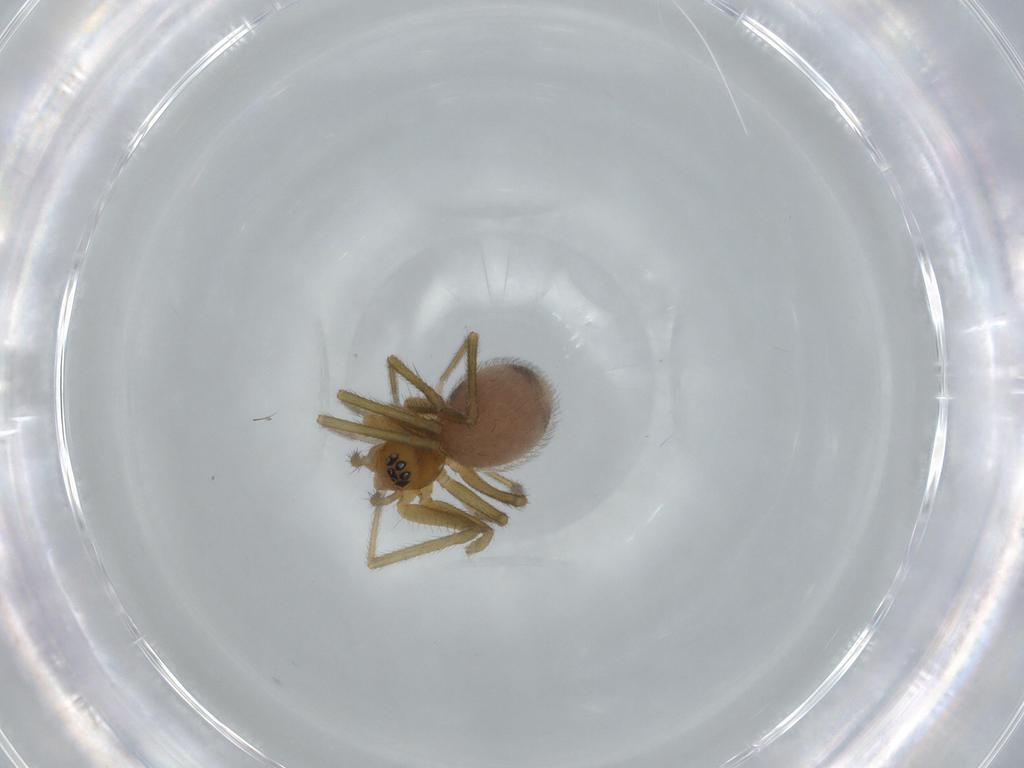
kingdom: Animalia
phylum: Arthropoda
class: Arachnida
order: Araneae
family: Linyphiidae
